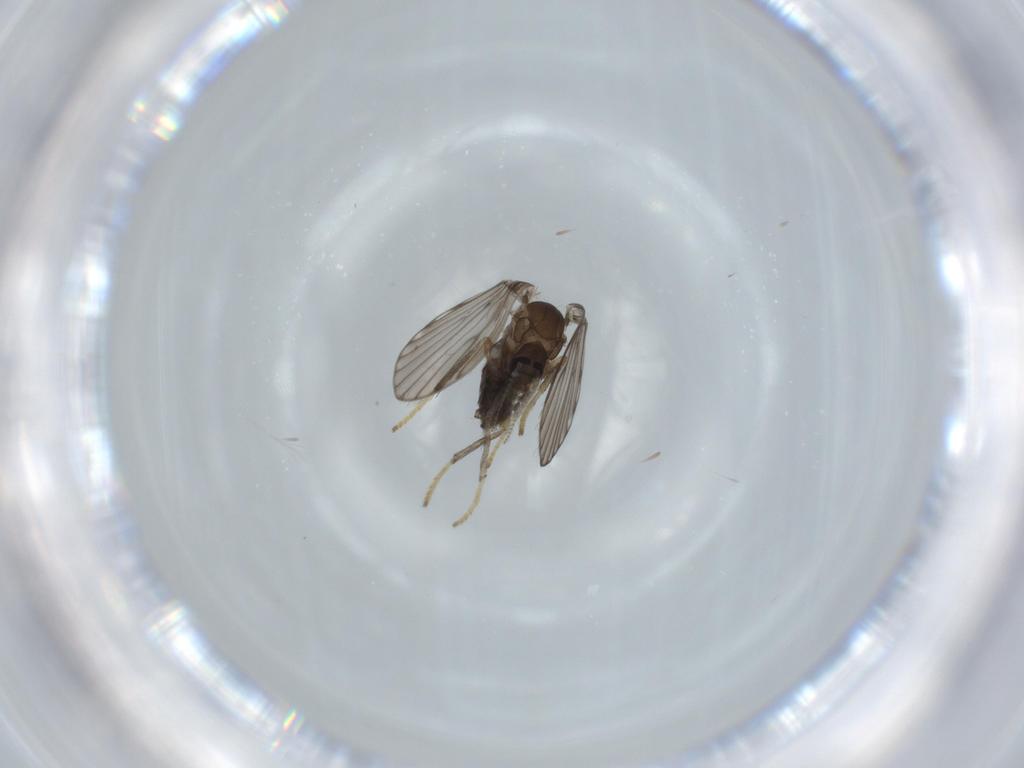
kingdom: Animalia
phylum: Arthropoda
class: Insecta
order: Diptera
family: Psychodidae
